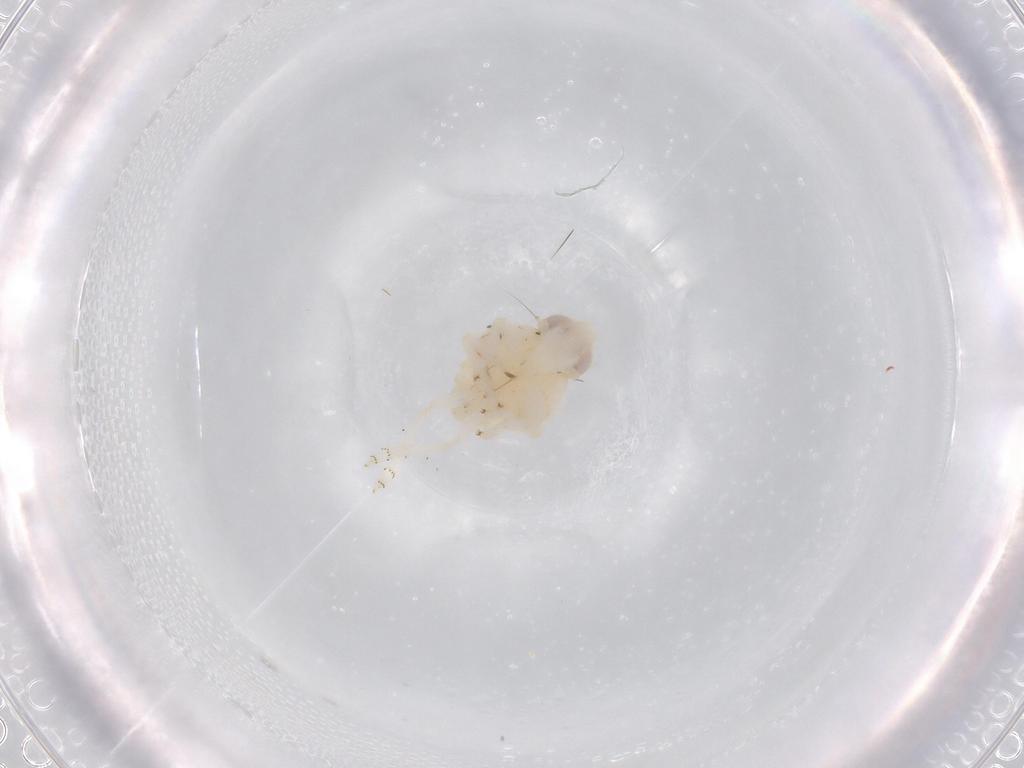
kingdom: Animalia
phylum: Arthropoda
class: Insecta
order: Hemiptera
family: Nogodinidae
